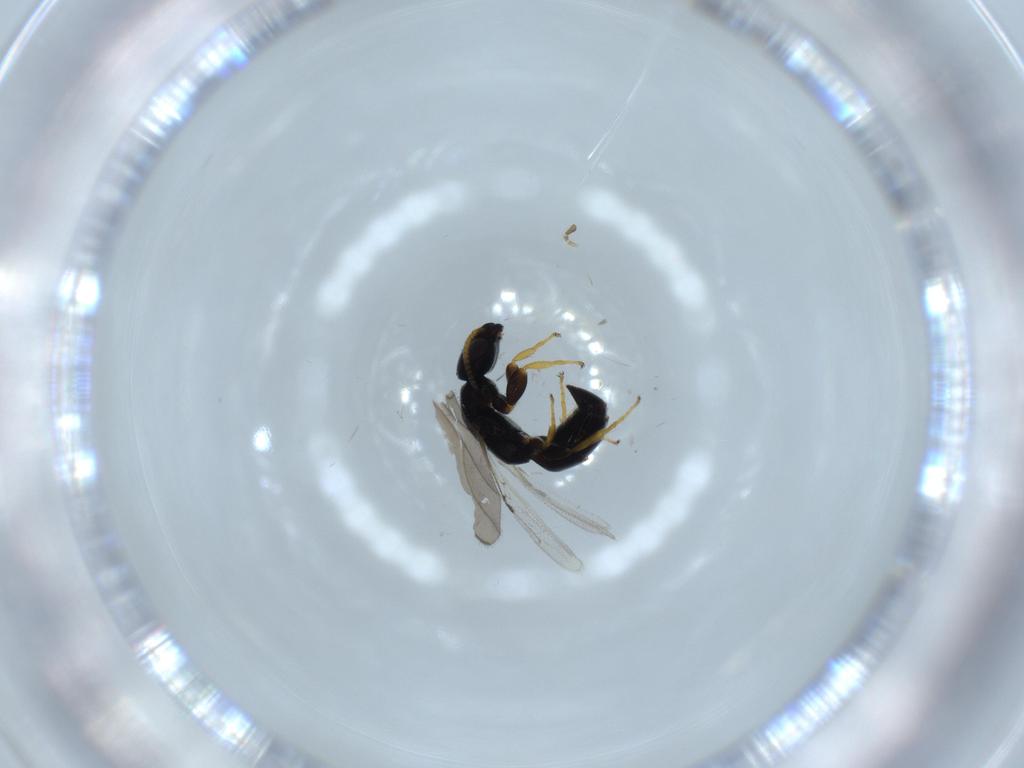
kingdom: Animalia
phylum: Arthropoda
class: Insecta
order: Hymenoptera
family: Bethylidae
